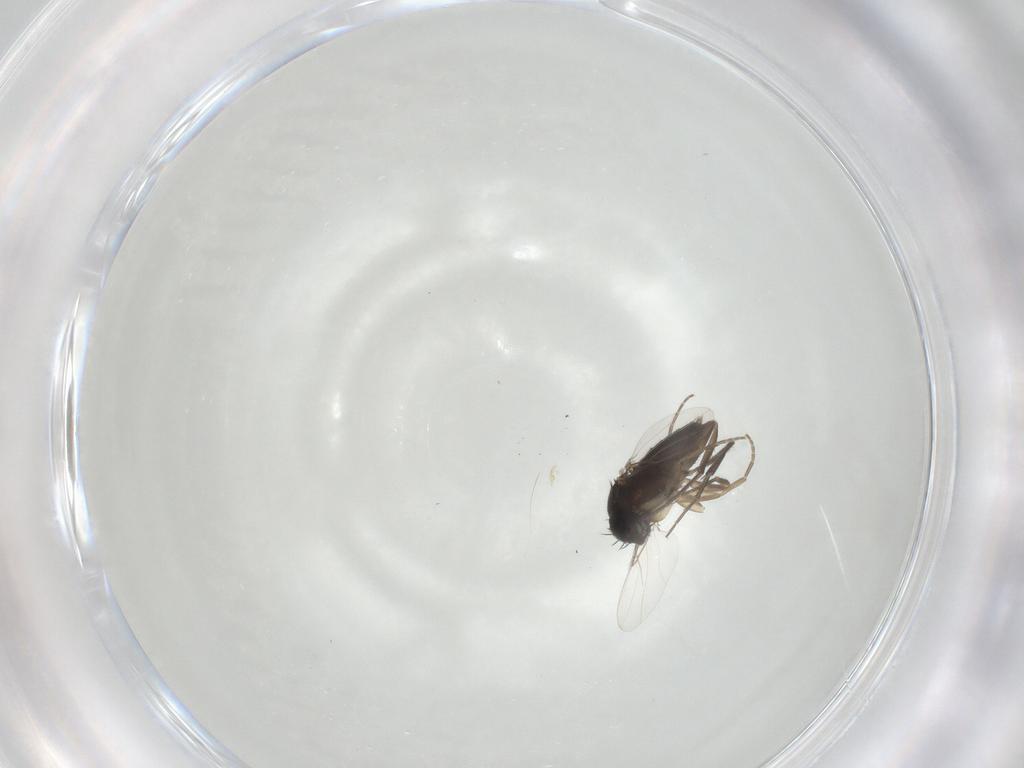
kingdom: Animalia
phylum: Arthropoda
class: Insecta
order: Diptera
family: Phoridae
